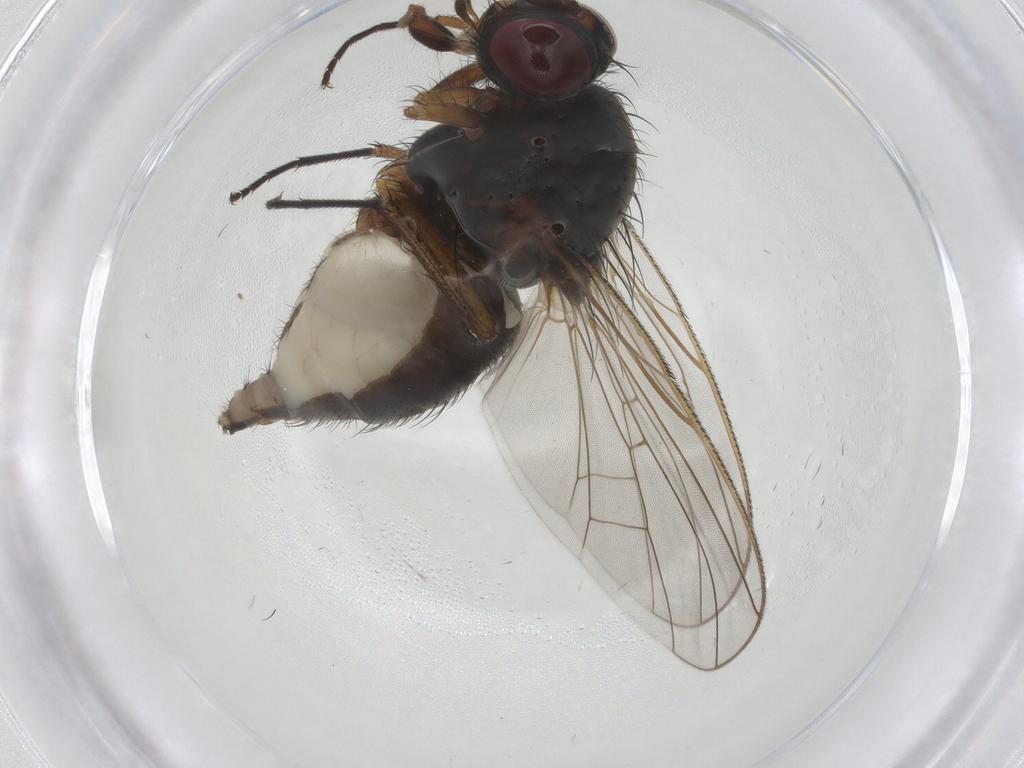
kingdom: Animalia
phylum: Arthropoda
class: Insecta
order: Diptera
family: Anthomyiidae
